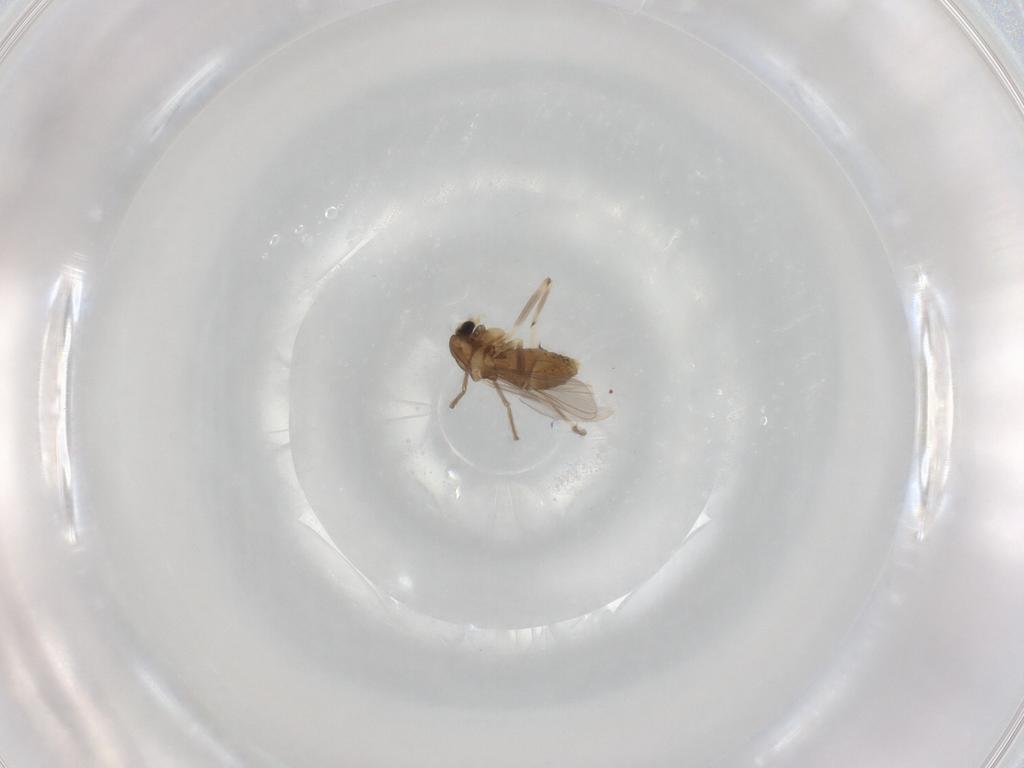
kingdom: Animalia
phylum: Arthropoda
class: Insecta
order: Diptera
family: Chironomidae
